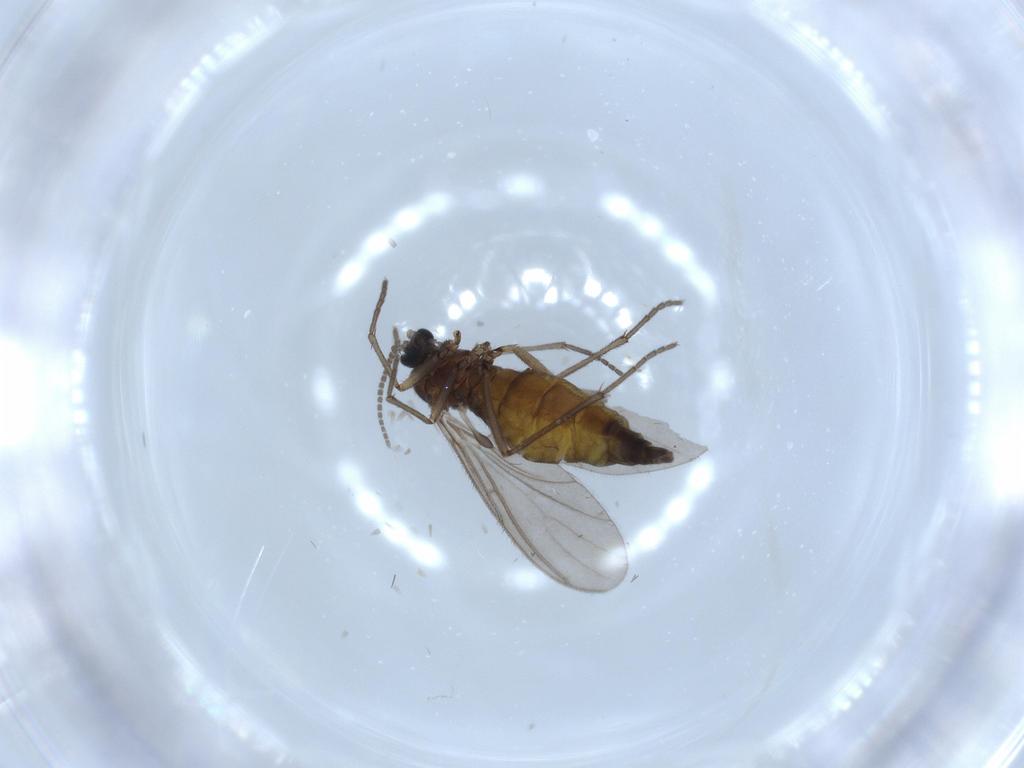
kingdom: Animalia
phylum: Arthropoda
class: Insecta
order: Diptera
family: Sciaridae
